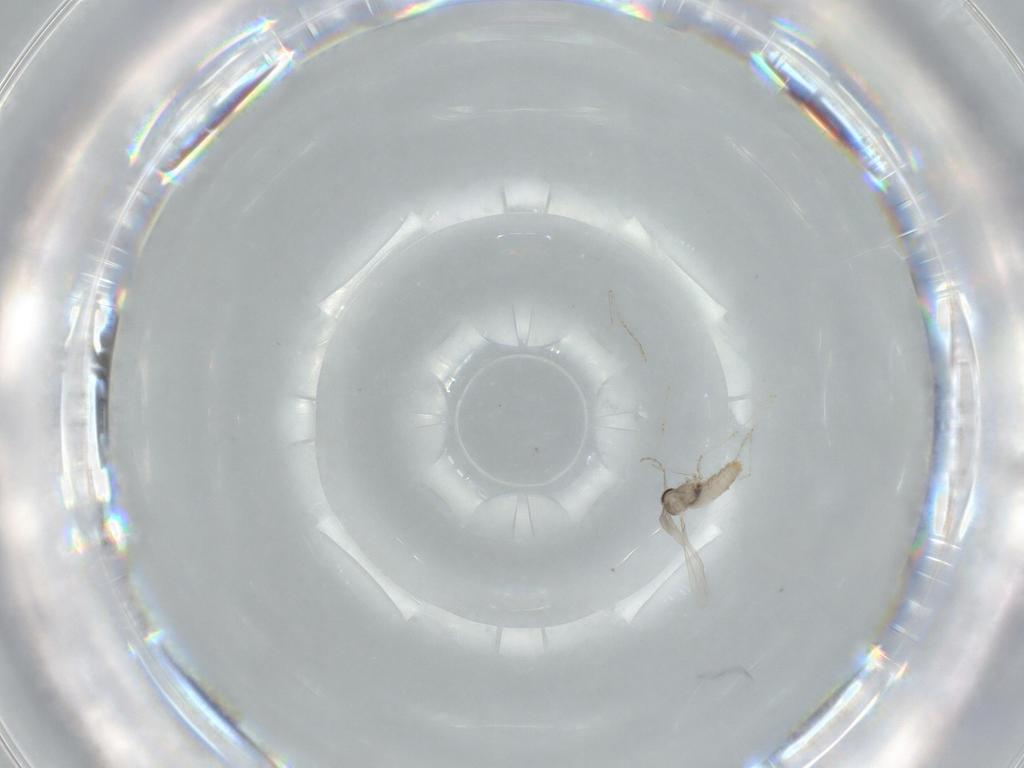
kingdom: Animalia
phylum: Arthropoda
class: Insecta
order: Diptera
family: Cecidomyiidae
